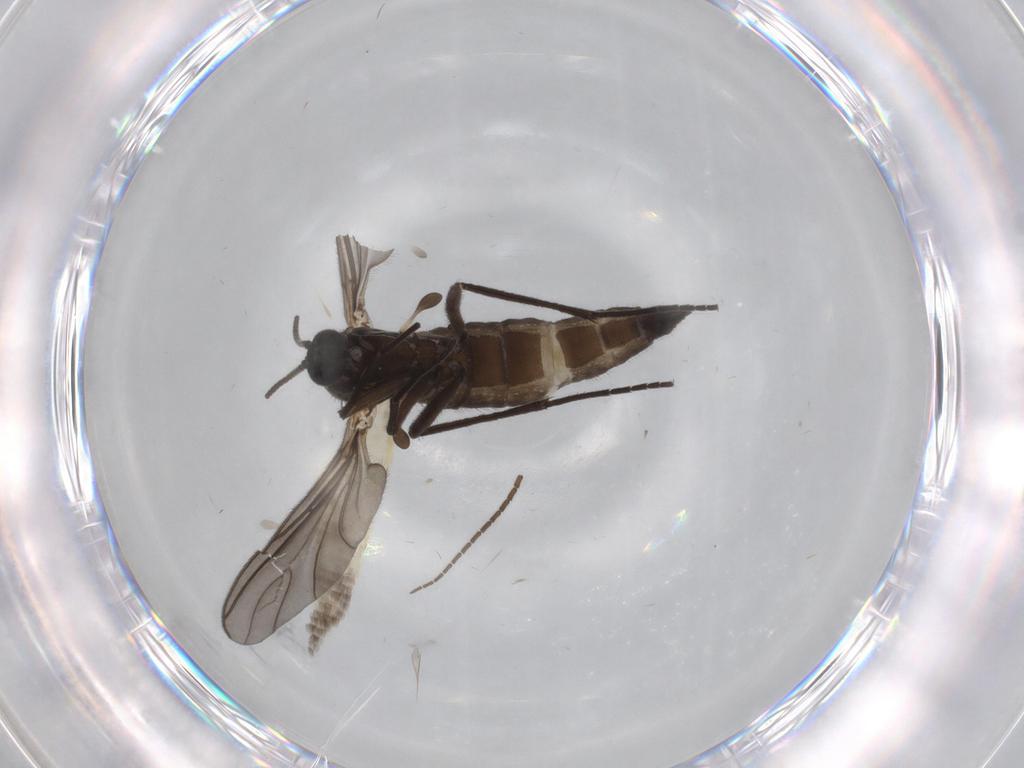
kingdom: Animalia
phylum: Arthropoda
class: Insecta
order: Diptera
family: Sciaridae
